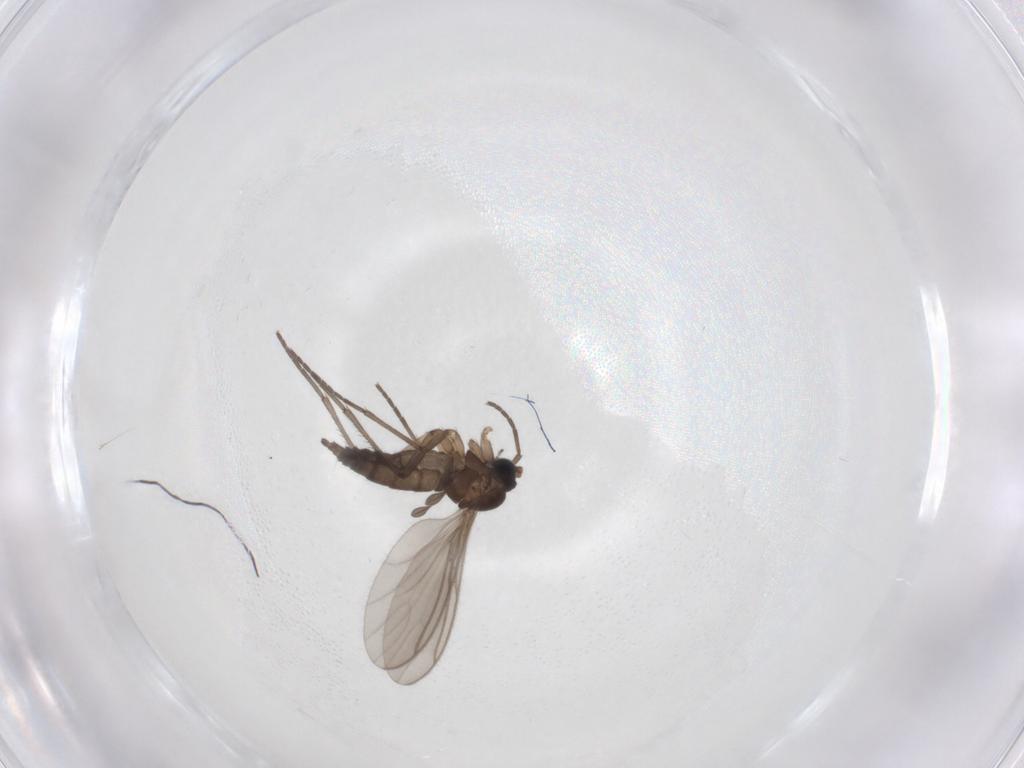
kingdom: Animalia
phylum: Arthropoda
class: Insecta
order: Diptera
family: Sciaridae
